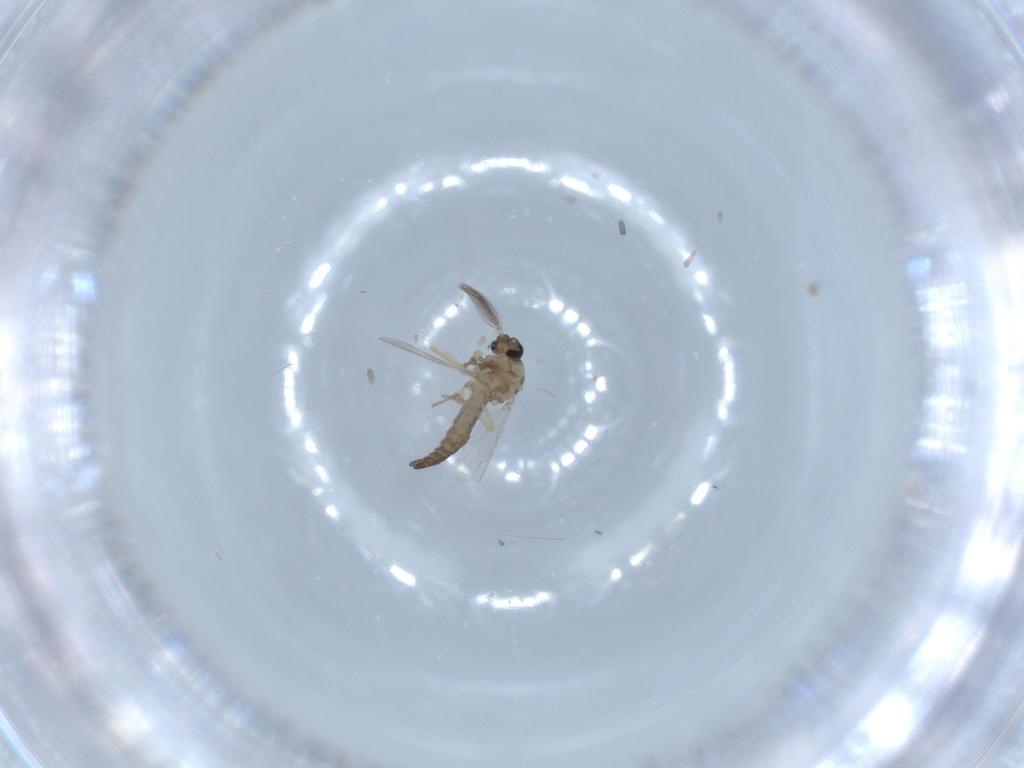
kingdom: Animalia
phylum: Arthropoda
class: Insecta
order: Diptera
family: Ceratopogonidae
